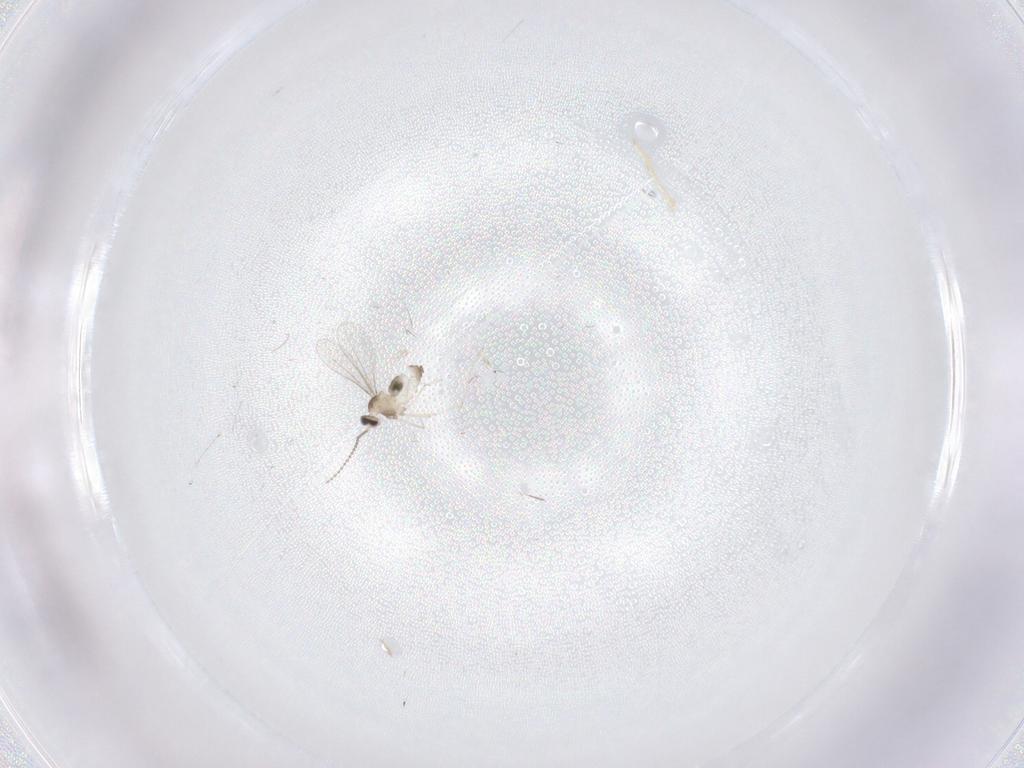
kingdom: Animalia
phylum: Arthropoda
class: Insecta
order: Diptera
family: Ceratopogonidae
